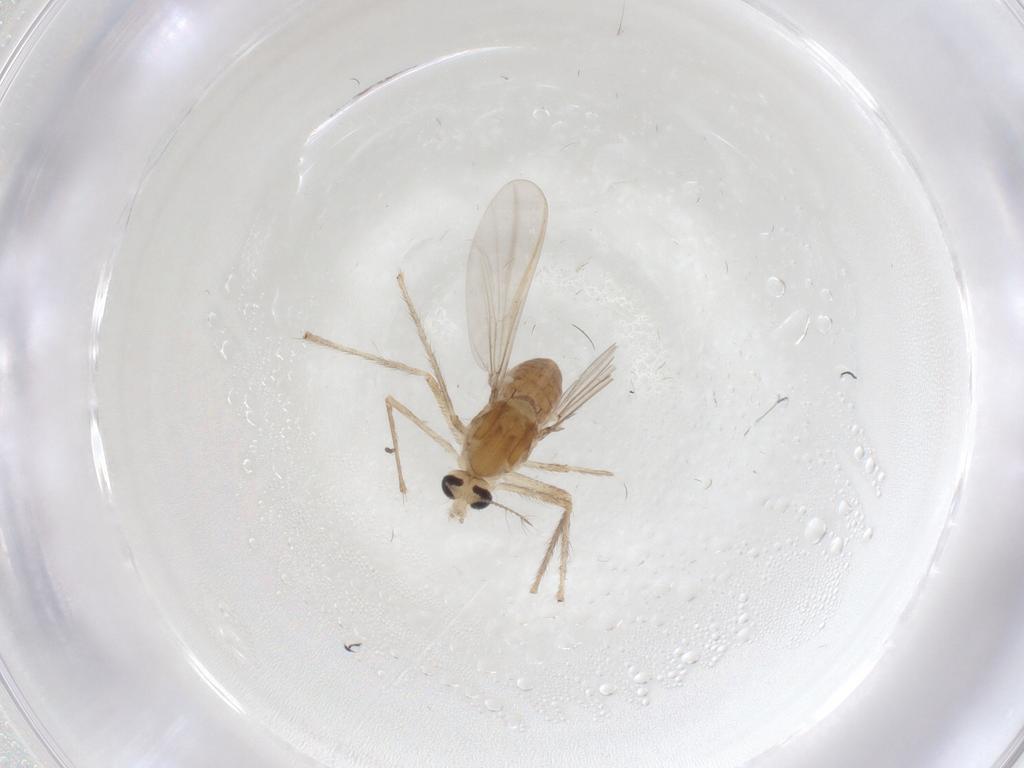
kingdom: Animalia
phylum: Arthropoda
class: Insecta
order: Diptera
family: Chironomidae
